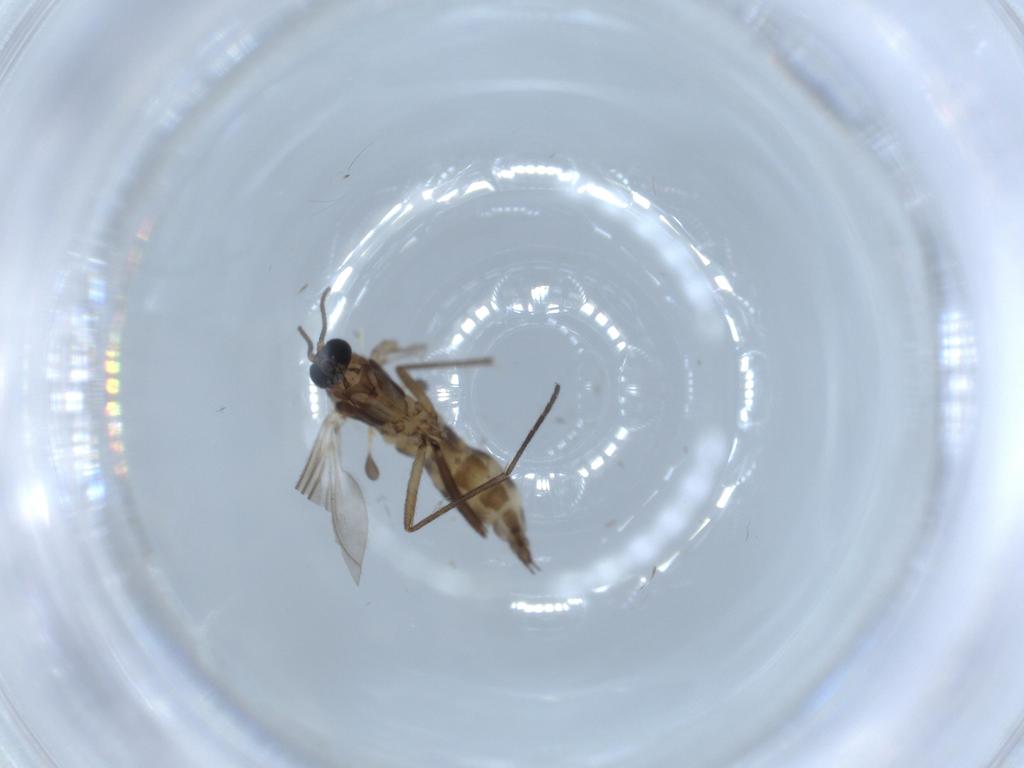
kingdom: Animalia
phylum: Arthropoda
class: Insecta
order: Diptera
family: Sciaridae
